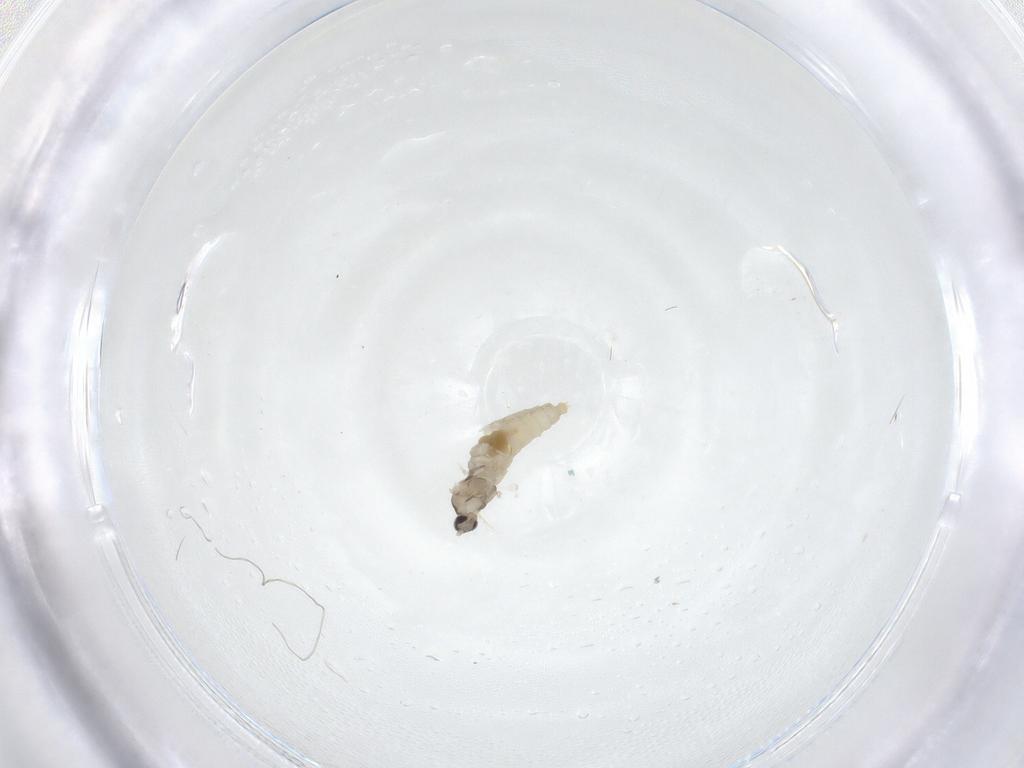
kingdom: Animalia
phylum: Arthropoda
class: Insecta
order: Diptera
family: Cecidomyiidae
